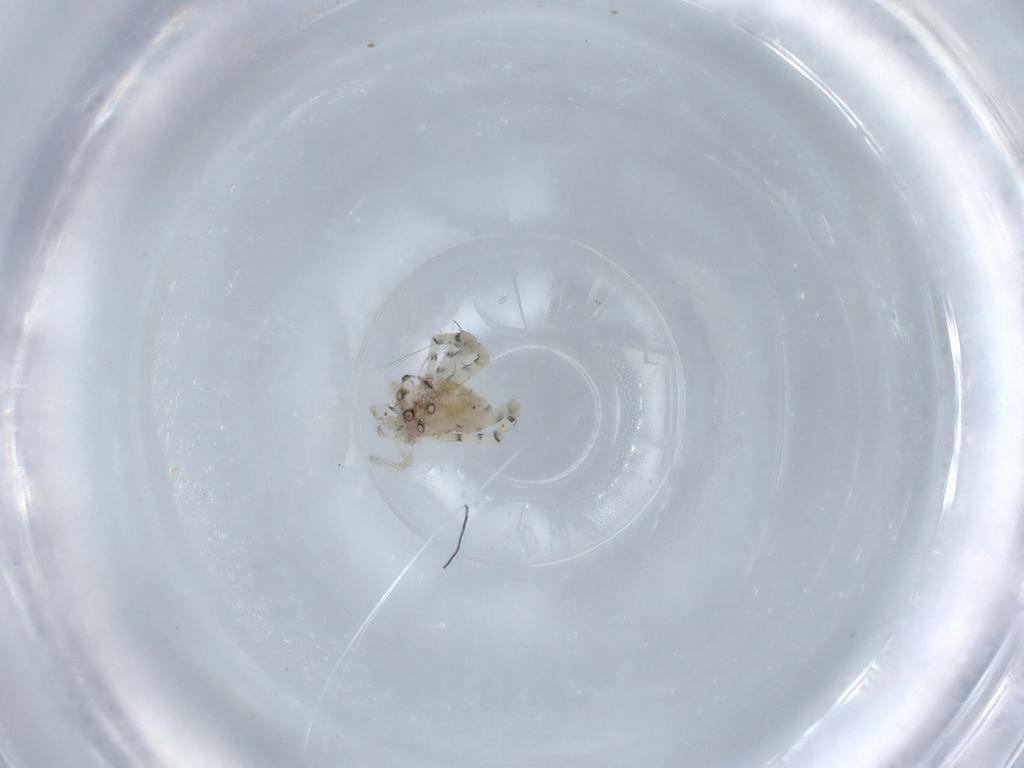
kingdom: Animalia
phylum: Arthropoda
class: Arachnida
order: Araneae
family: Oxyopidae
